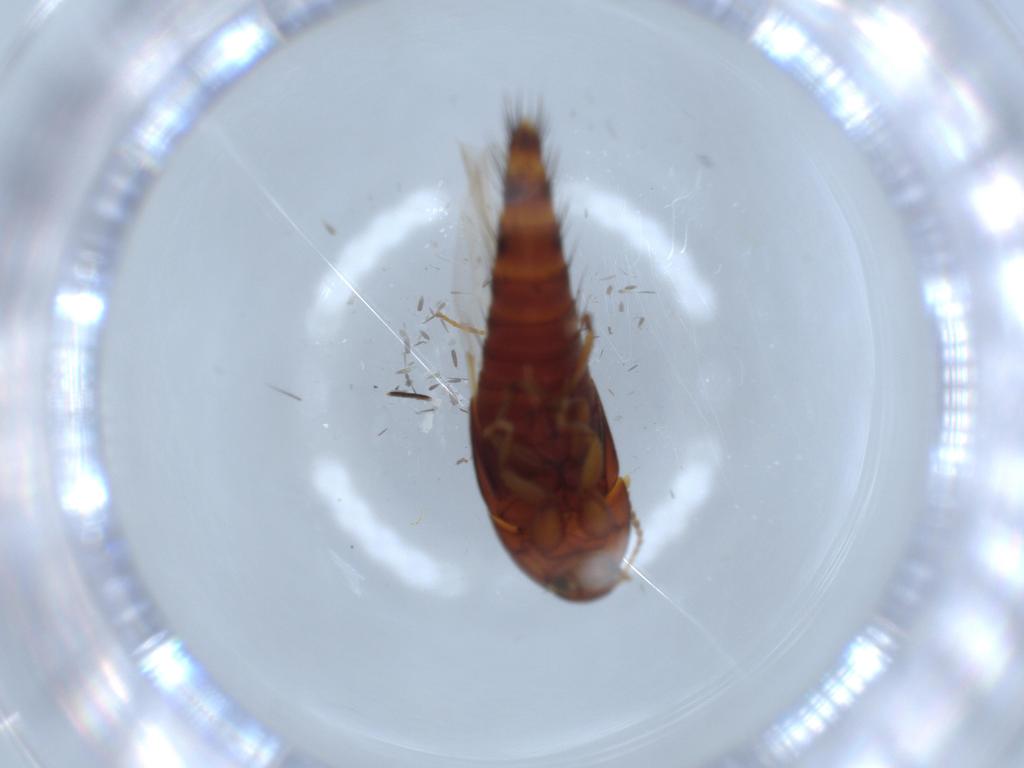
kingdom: Animalia
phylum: Arthropoda
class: Insecta
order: Coleoptera
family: Staphylinidae
